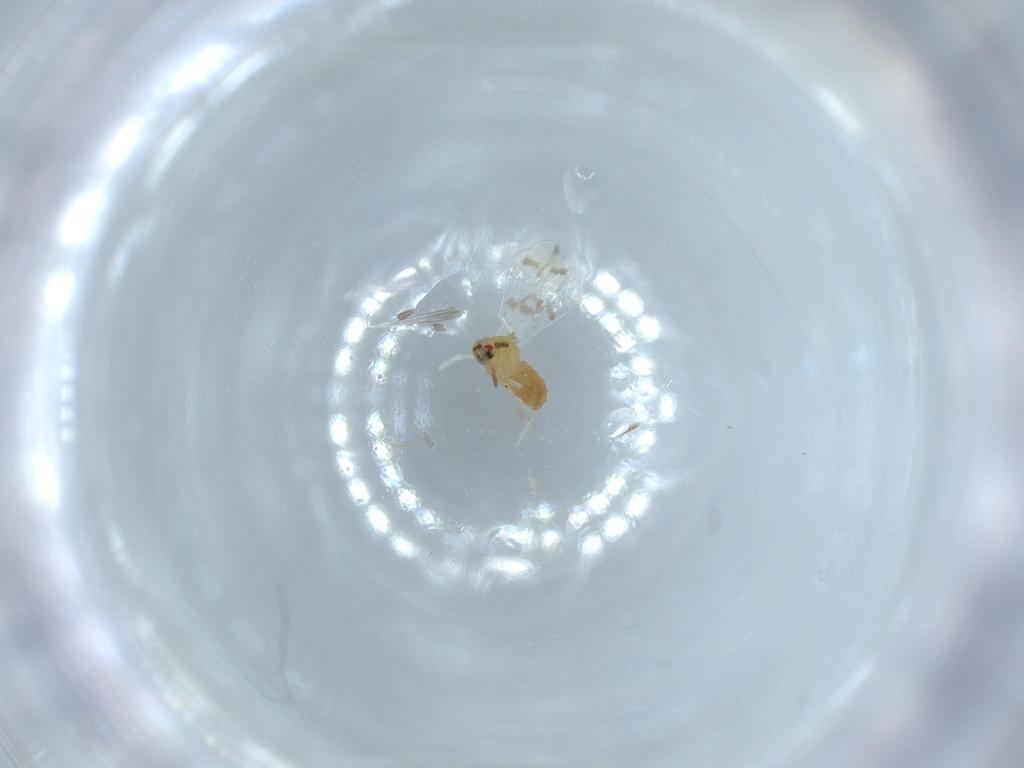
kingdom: Animalia
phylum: Arthropoda
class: Insecta
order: Hemiptera
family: Aleyrodidae
